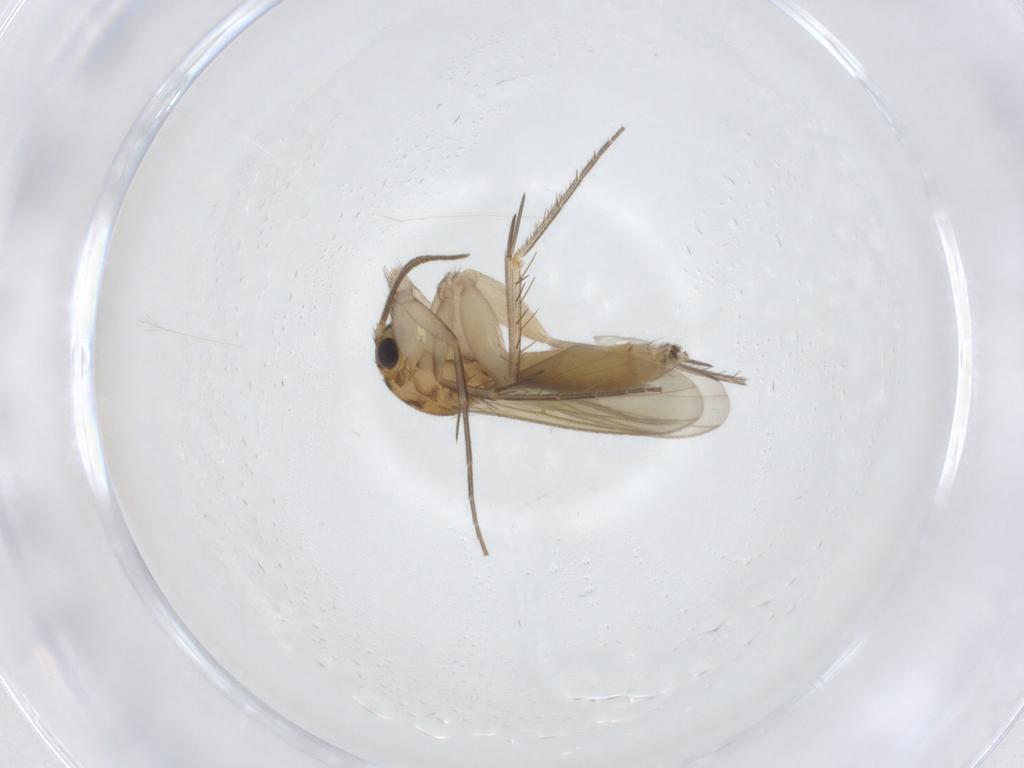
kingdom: Animalia
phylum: Arthropoda
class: Insecta
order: Diptera
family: Mycetophilidae
